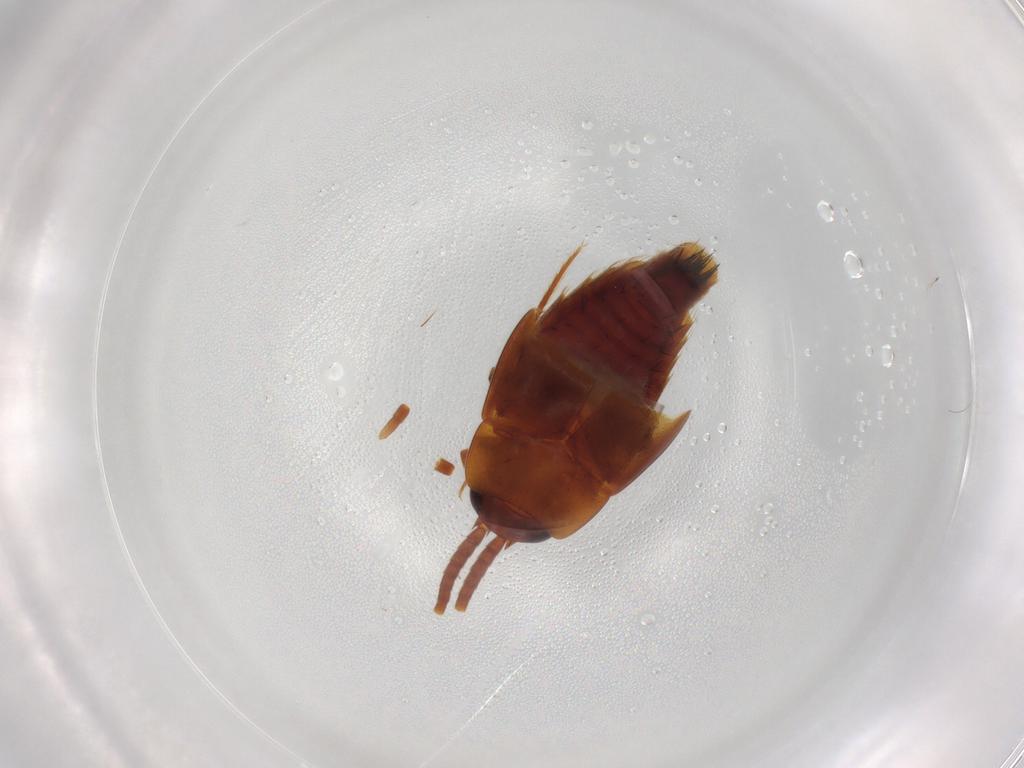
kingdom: Animalia
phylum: Arthropoda
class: Insecta
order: Coleoptera
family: Staphylinidae
